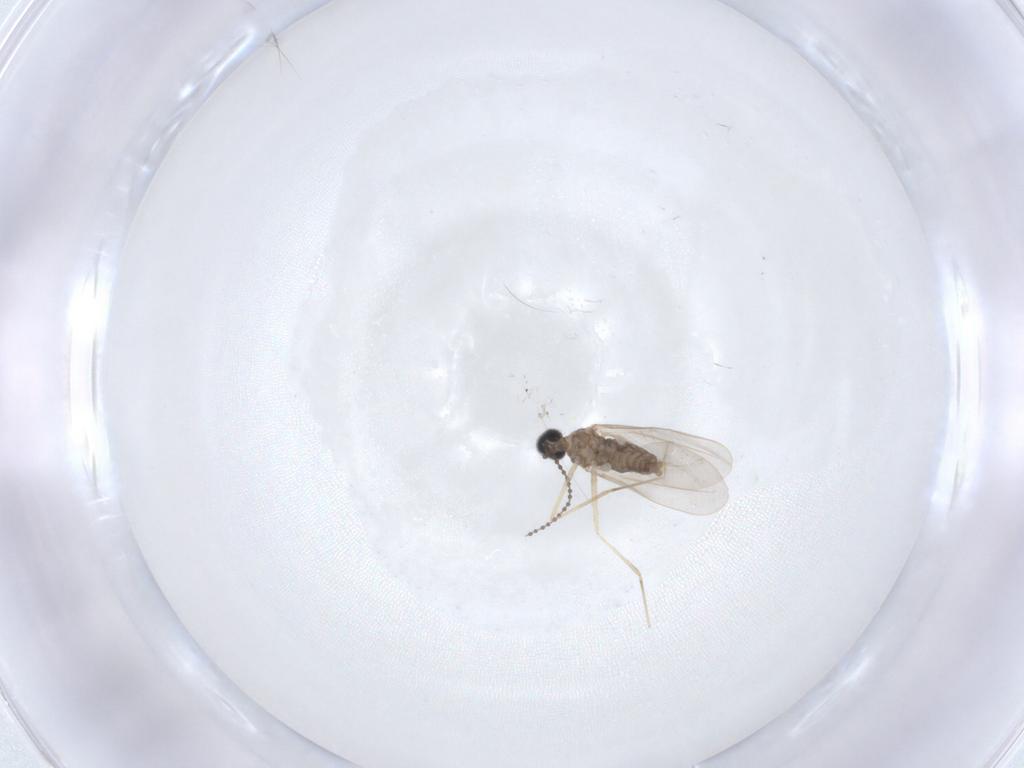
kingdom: Animalia
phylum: Arthropoda
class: Insecta
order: Diptera
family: Cecidomyiidae
